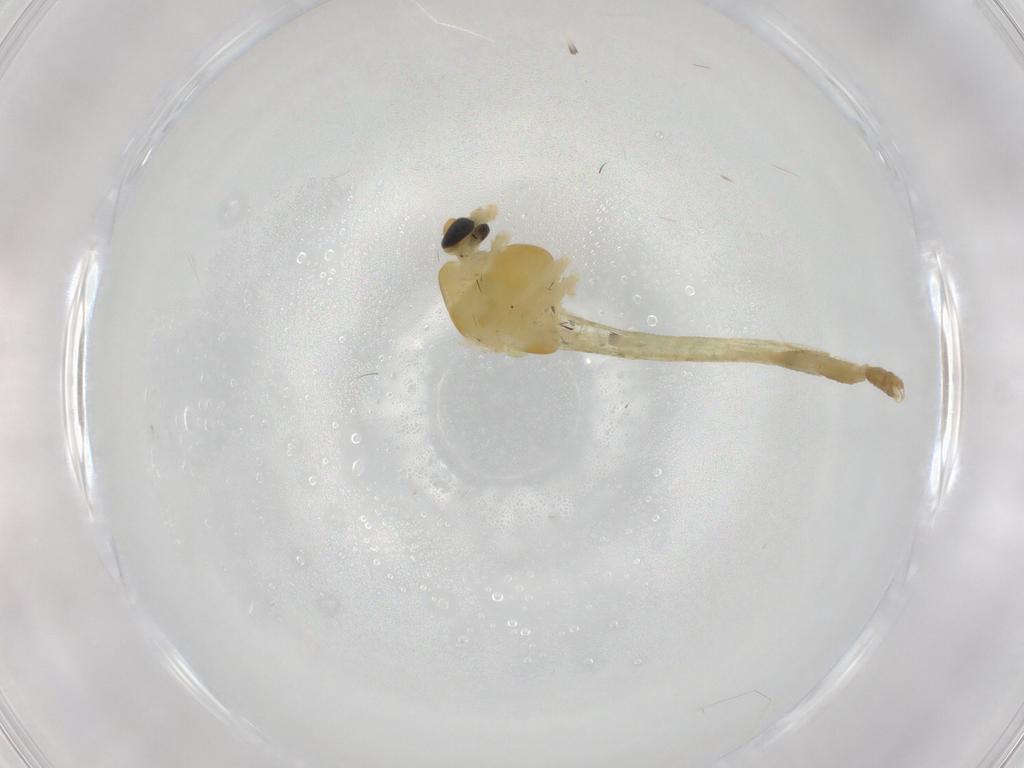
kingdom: Animalia
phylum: Arthropoda
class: Insecta
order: Diptera
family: Chironomidae
